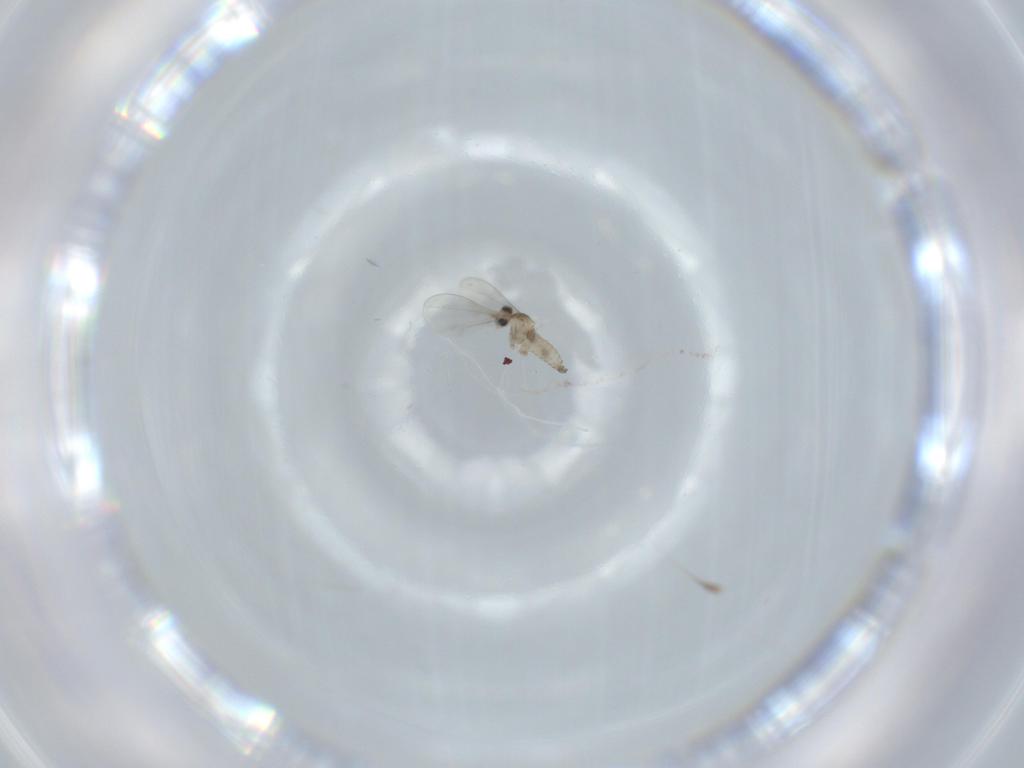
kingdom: Animalia
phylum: Arthropoda
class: Insecta
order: Diptera
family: Cecidomyiidae
